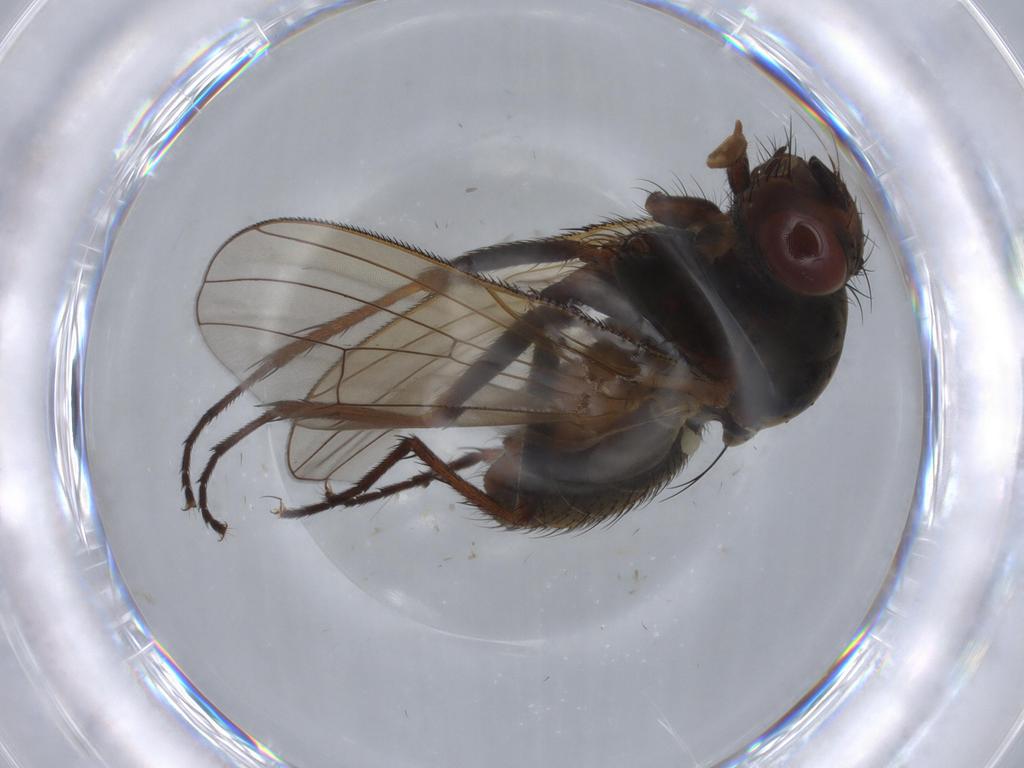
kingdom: Animalia
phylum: Arthropoda
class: Insecta
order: Diptera
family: Anthomyiidae
